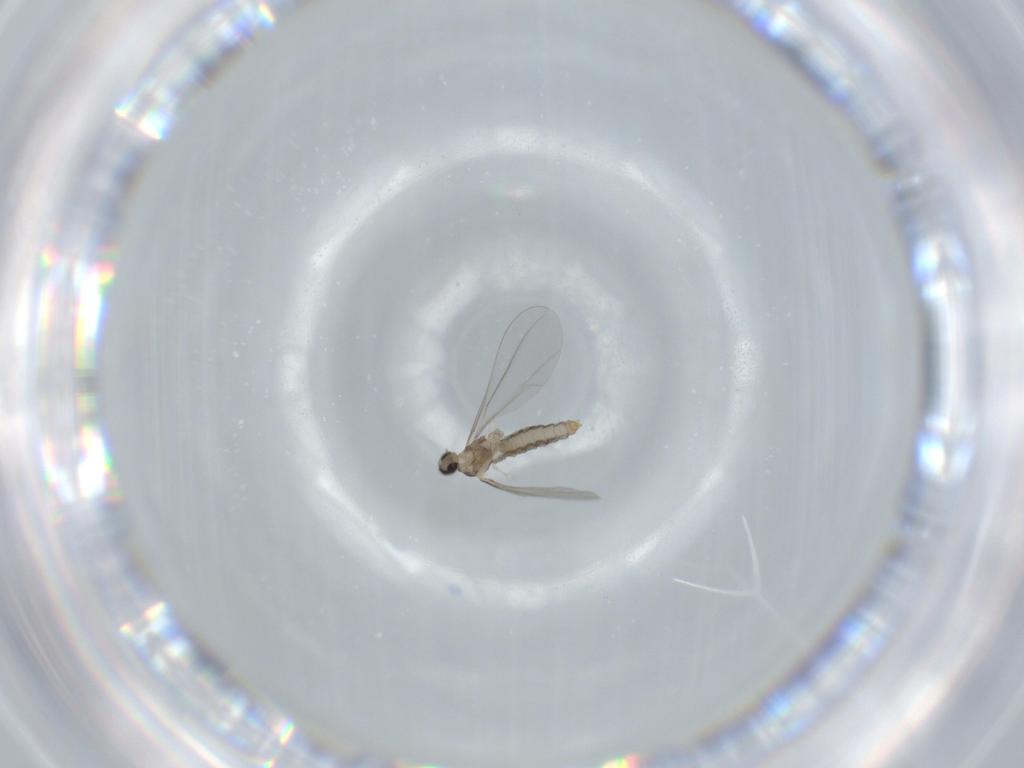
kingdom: Animalia
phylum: Arthropoda
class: Insecta
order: Diptera
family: Cecidomyiidae
